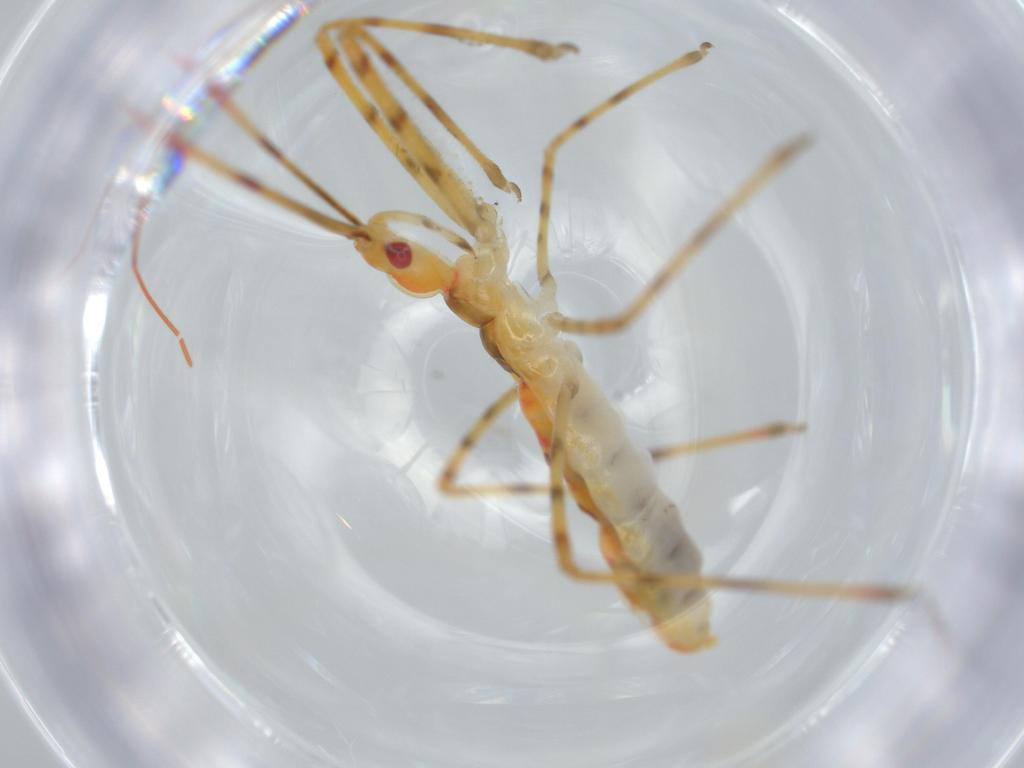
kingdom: Animalia
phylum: Arthropoda
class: Insecta
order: Hemiptera
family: Reduviidae
